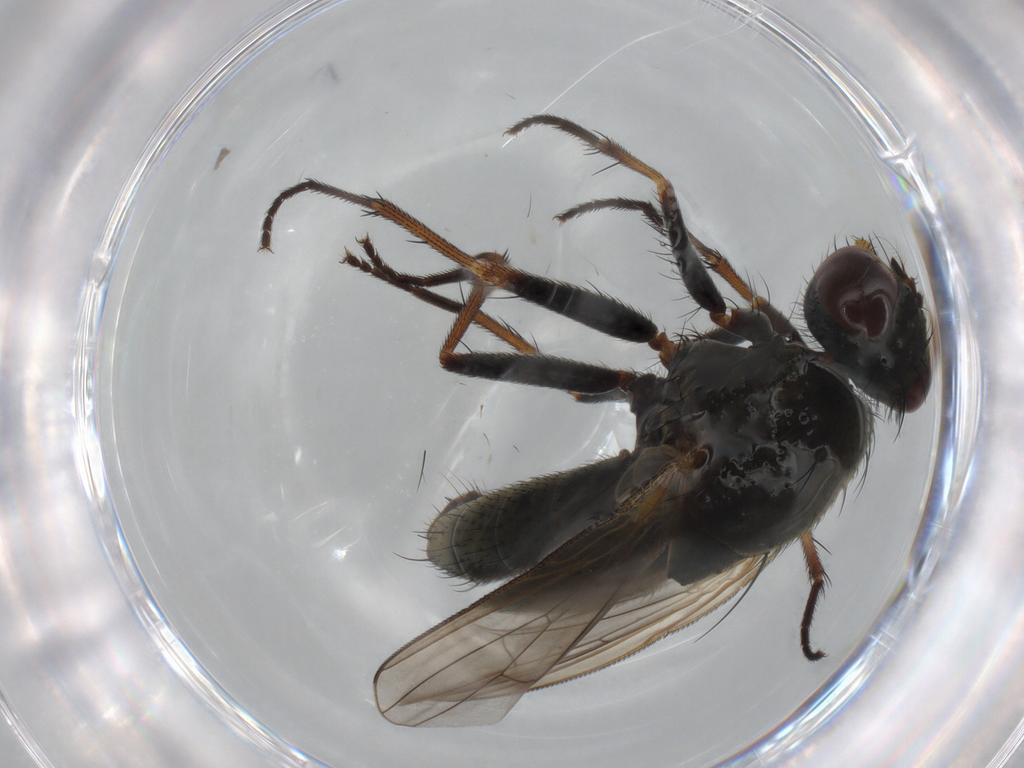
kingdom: Animalia
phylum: Arthropoda
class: Insecta
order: Diptera
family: Muscidae
